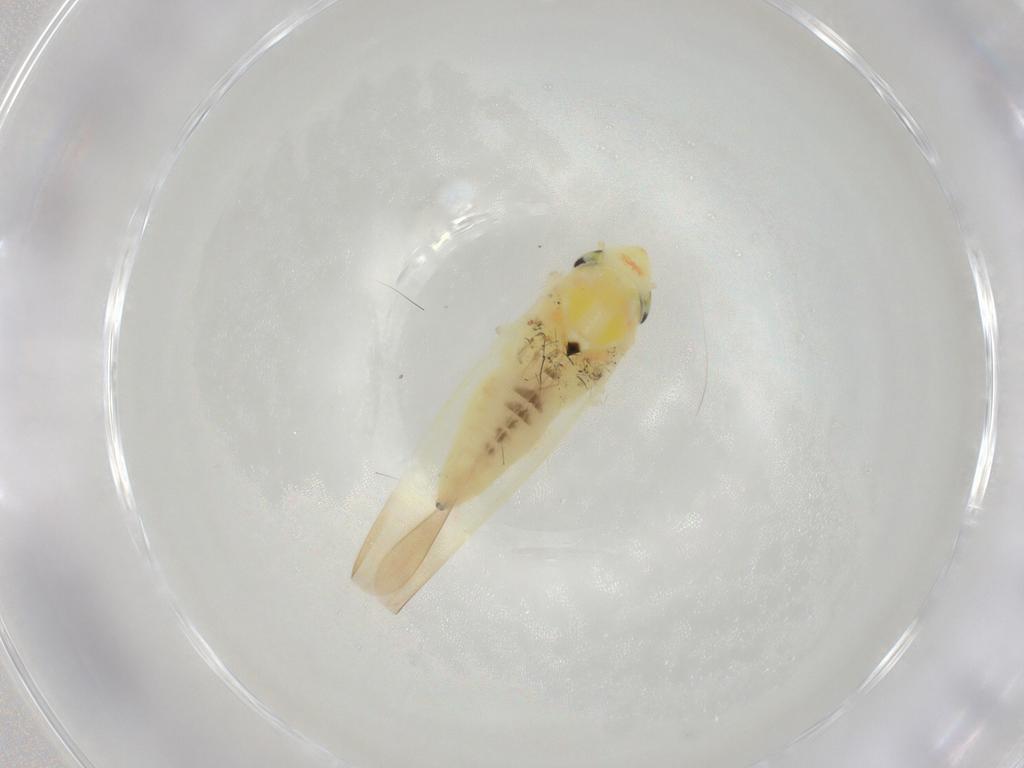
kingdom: Animalia
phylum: Arthropoda
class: Insecta
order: Hemiptera
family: Cicadellidae
